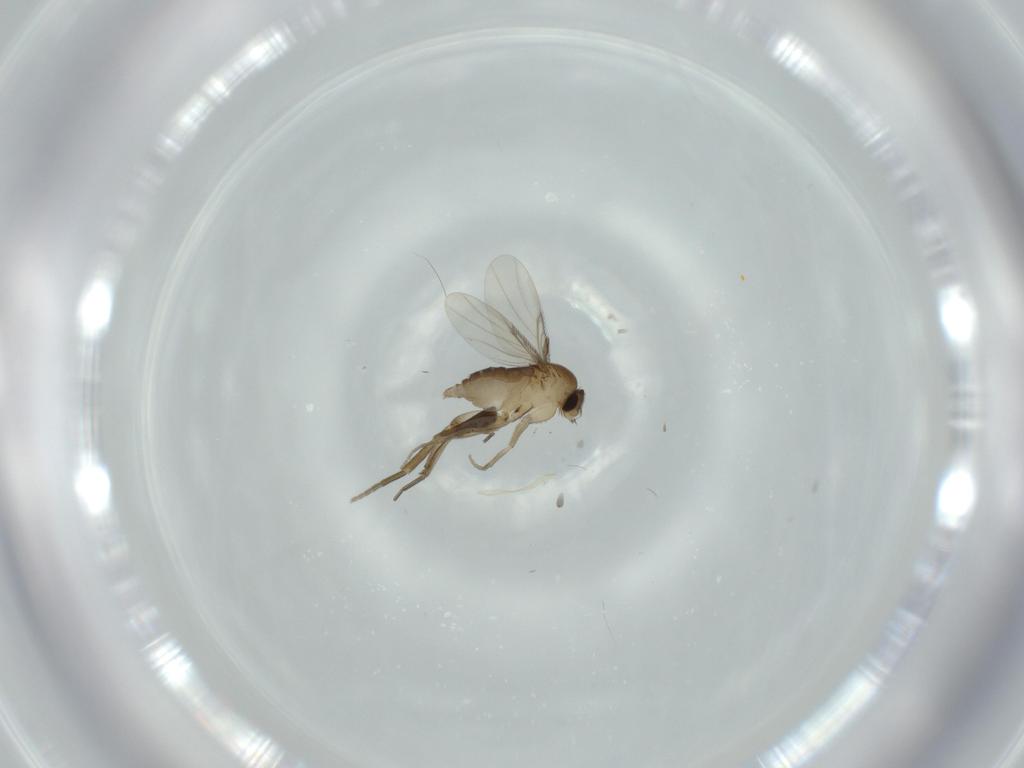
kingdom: Animalia
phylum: Arthropoda
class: Insecta
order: Diptera
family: Phoridae
